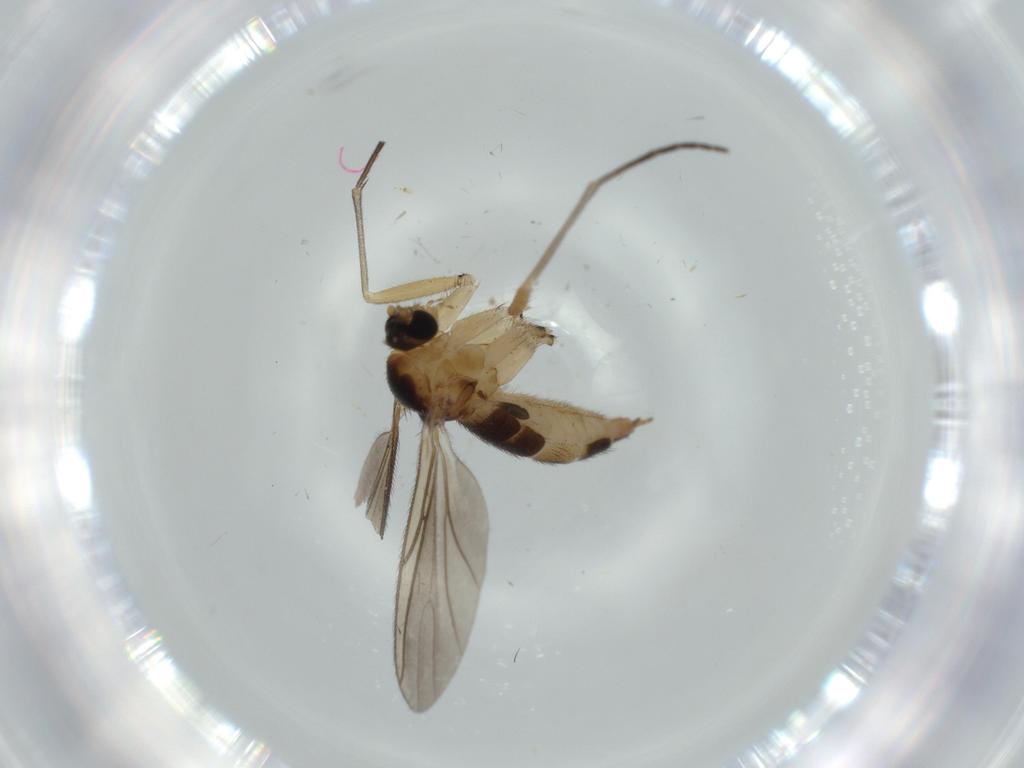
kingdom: Animalia
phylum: Arthropoda
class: Insecta
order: Diptera
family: Sciaridae
